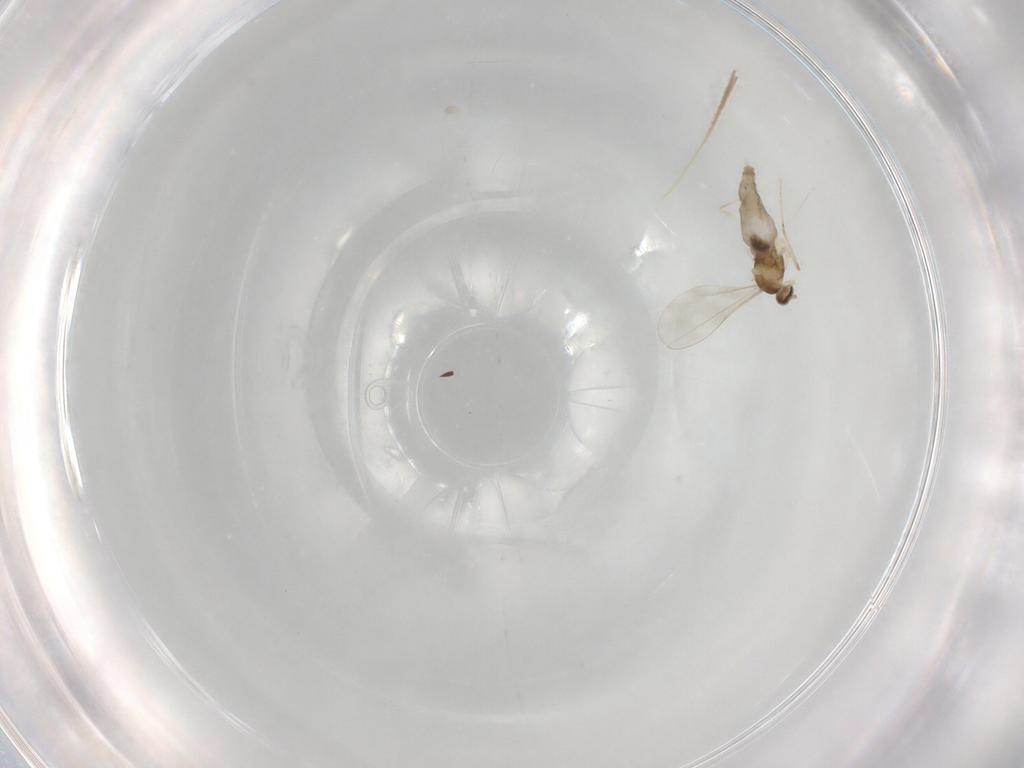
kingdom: Animalia
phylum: Arthropoda
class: Insecta
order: Diptera
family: Cecidomyiidae
